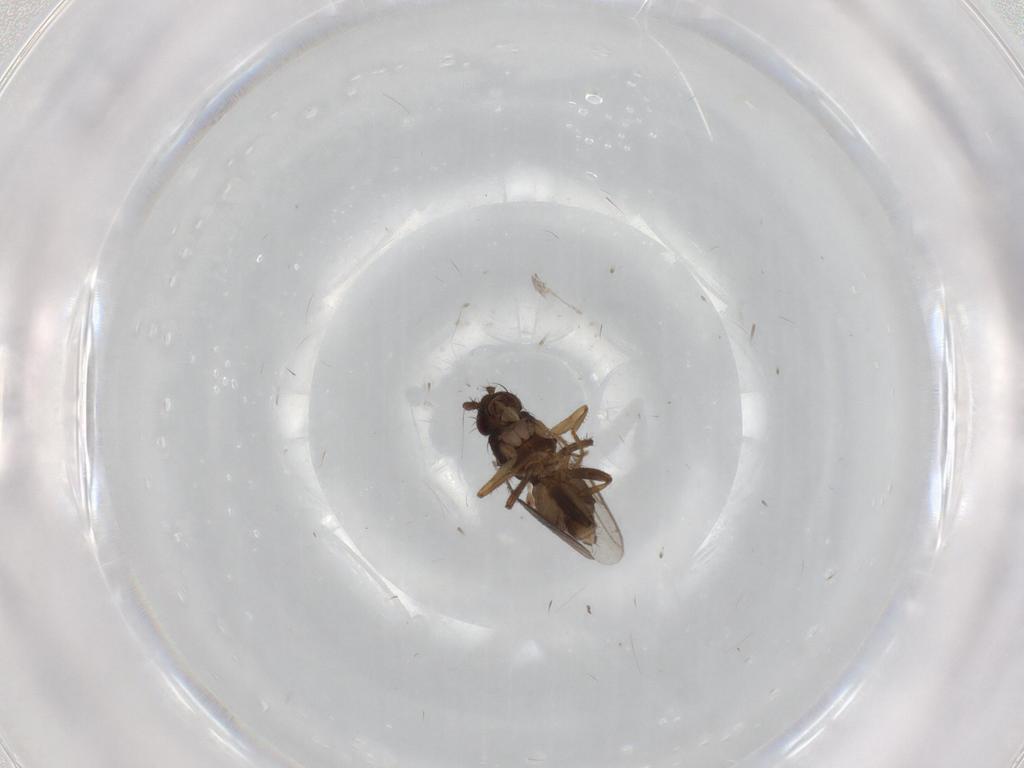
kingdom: Animalia
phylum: Arthropoda
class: Insecta
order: Diptera
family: Sphaeroceridae
